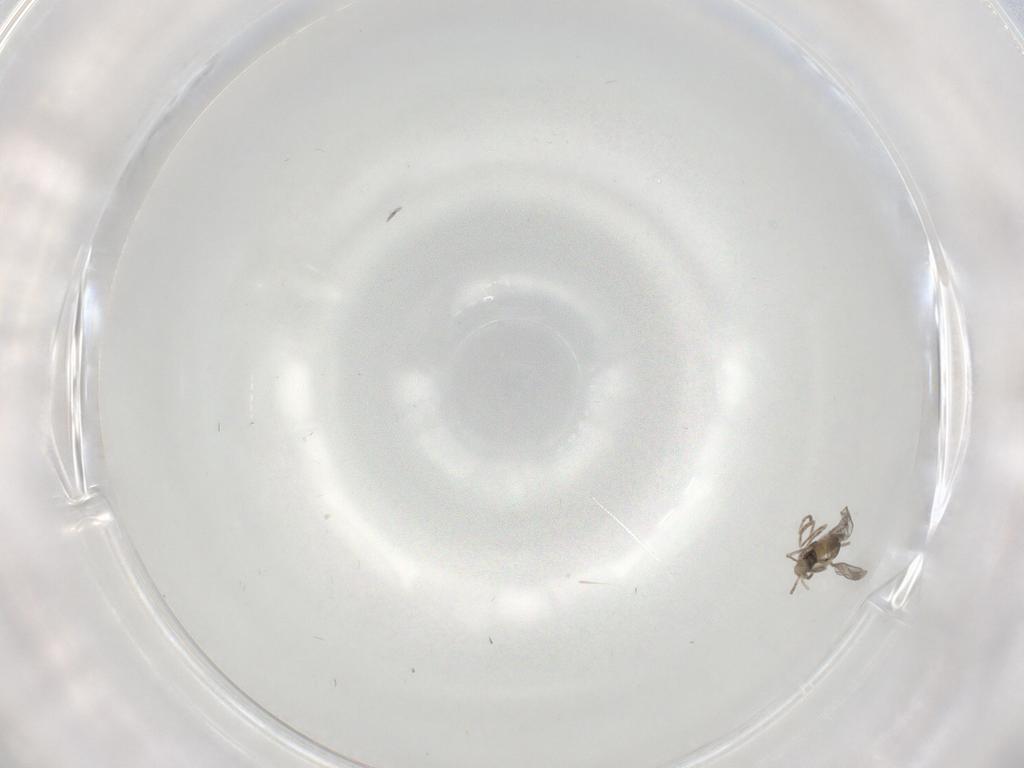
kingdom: Animalia
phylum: Arthropoda
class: Insecta
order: Diptera
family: Cecidomyiidae
